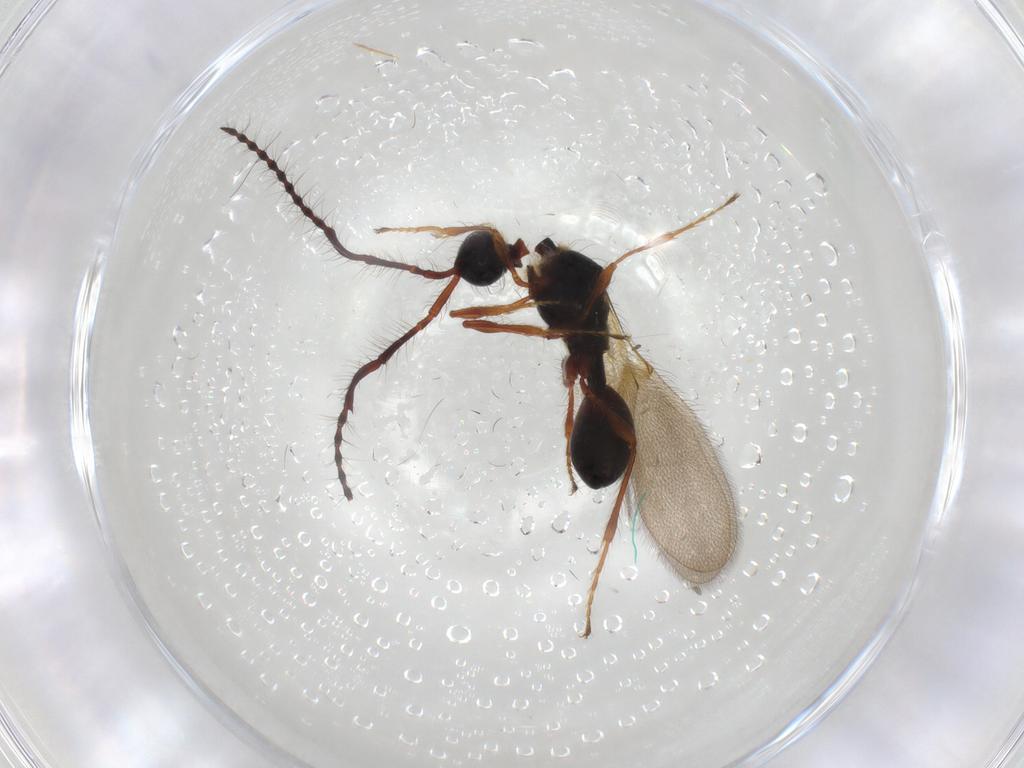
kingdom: Animalia
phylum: Arthropoda
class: Insecta
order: Hymenoptera
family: Diapriidae
